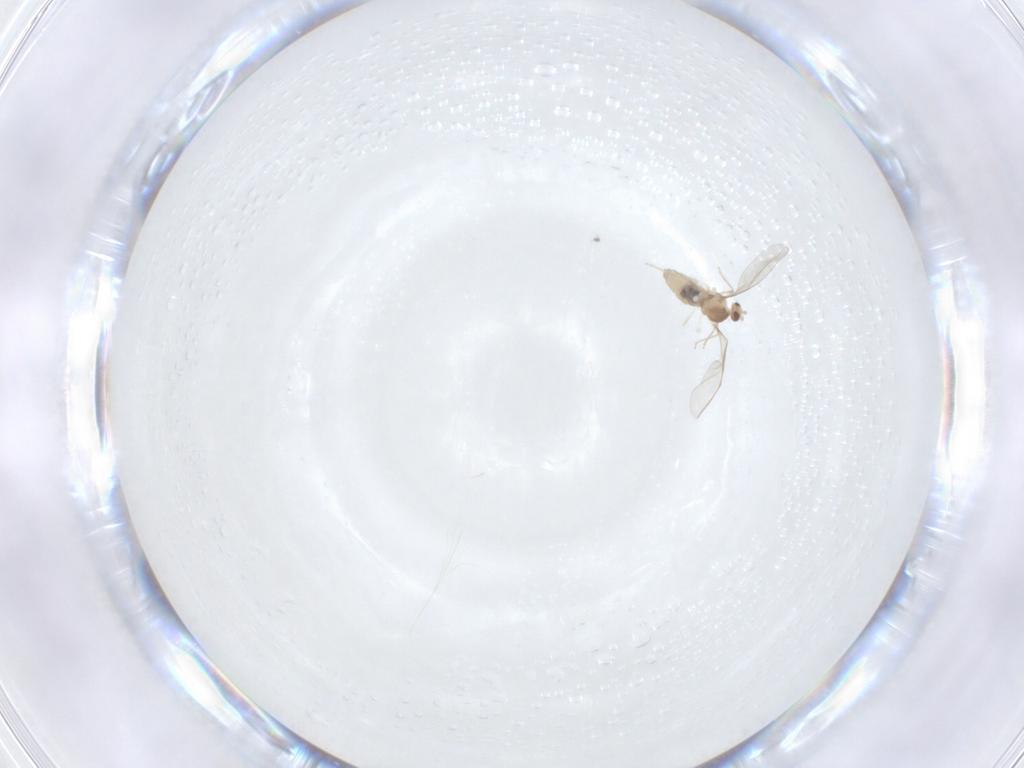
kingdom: Animalia
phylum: Arthropoda
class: Insecta
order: Diptera
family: Cecidomyiidae
